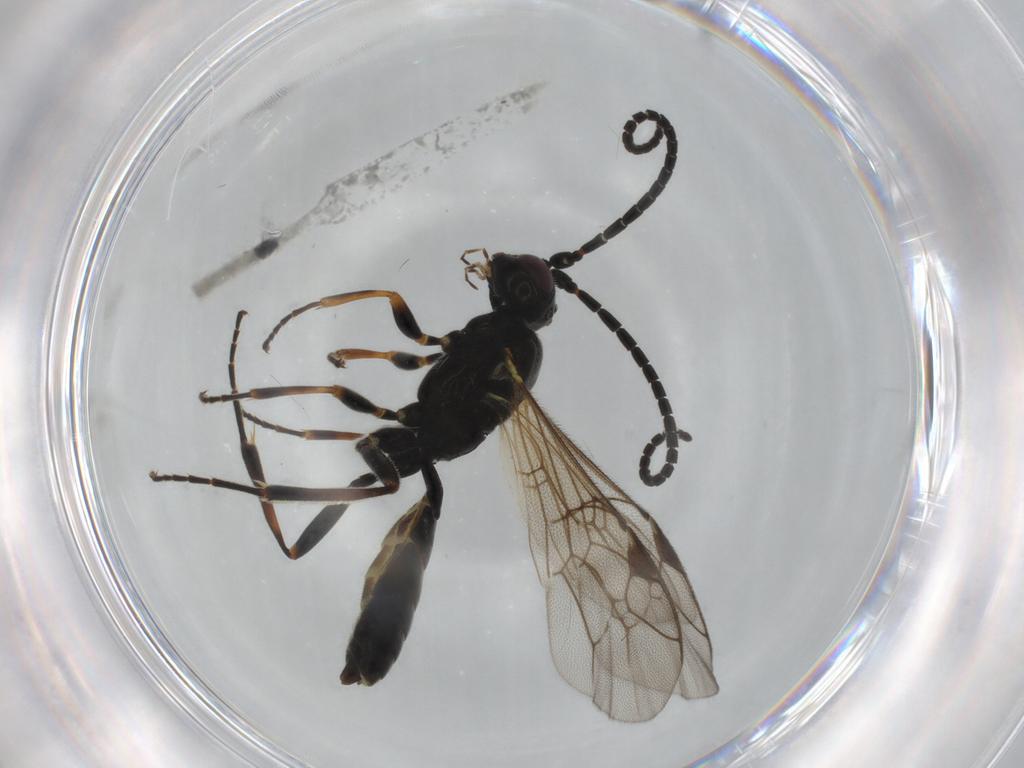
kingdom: Animalia
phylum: Arthropoda
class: Insecta
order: Hymenoptera
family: Ichneumonidae
